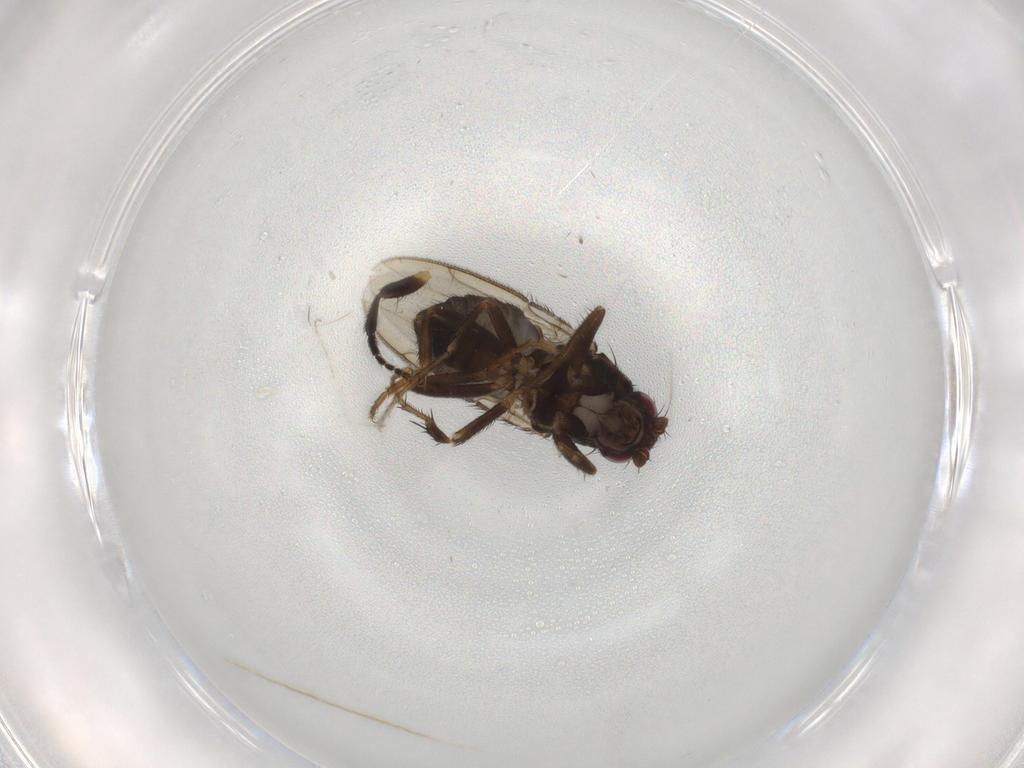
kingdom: Animalia
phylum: Arthropoda
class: Insecta
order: Diptera
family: Sphaeroceridae
